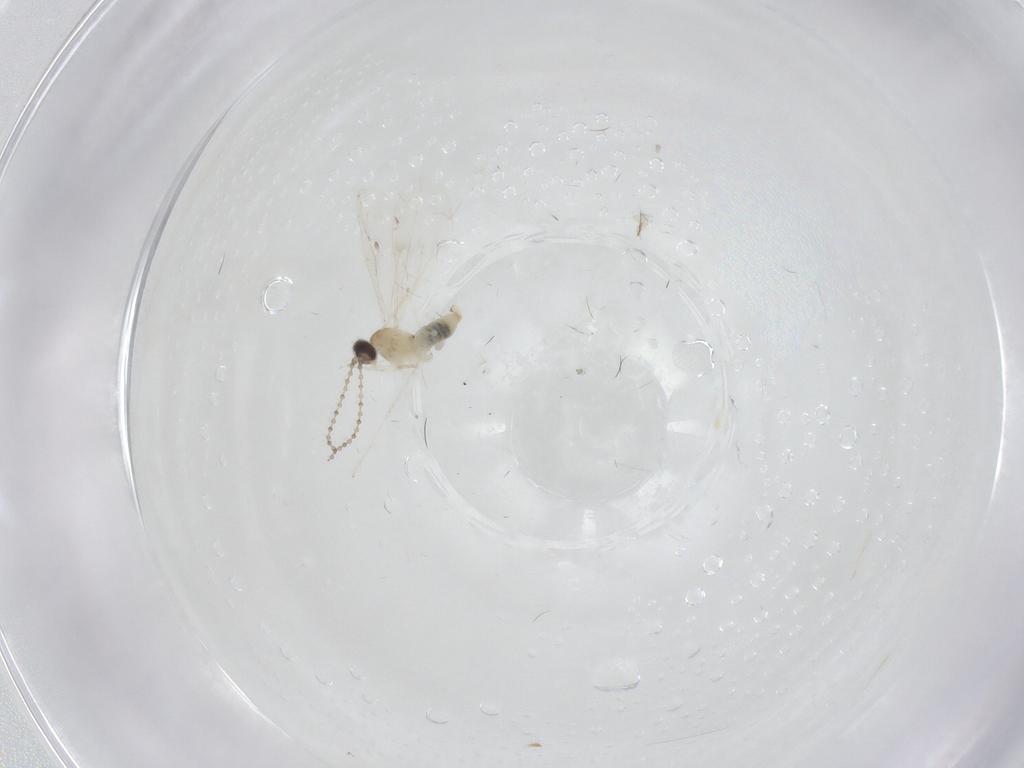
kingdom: Animalia
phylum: Arthropoda
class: Insecta
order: Diptera
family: Cecidomyiidae
